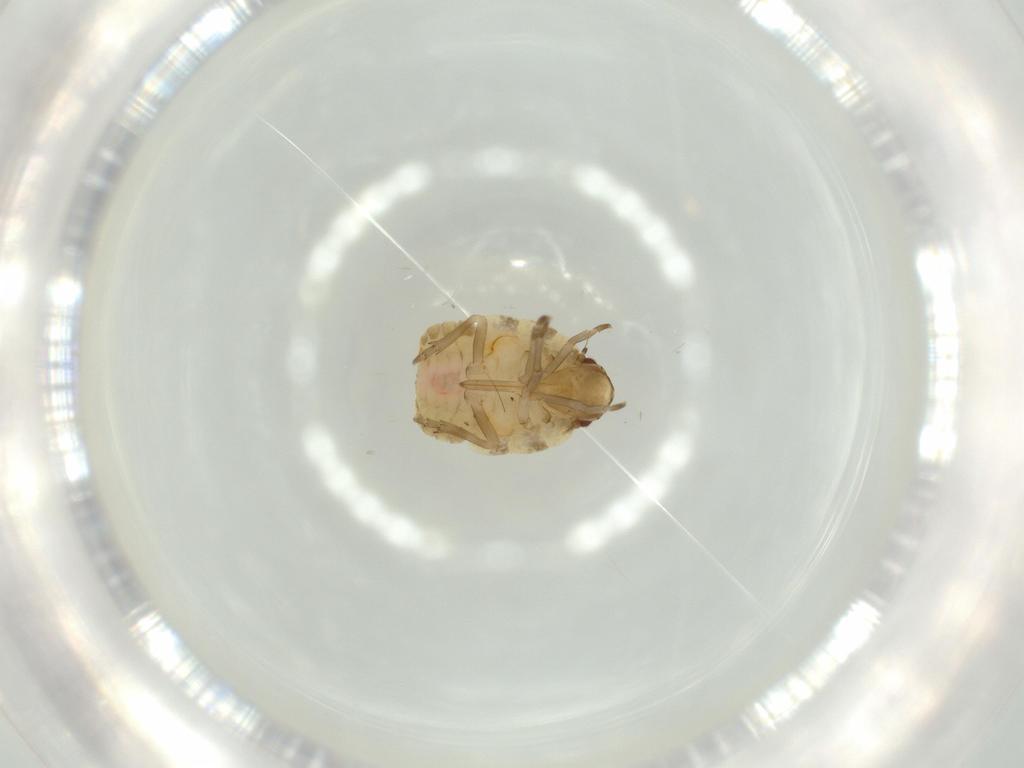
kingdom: Animalia
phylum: Arthropoda
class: Insecta
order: Hemiptera
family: Flatidae
